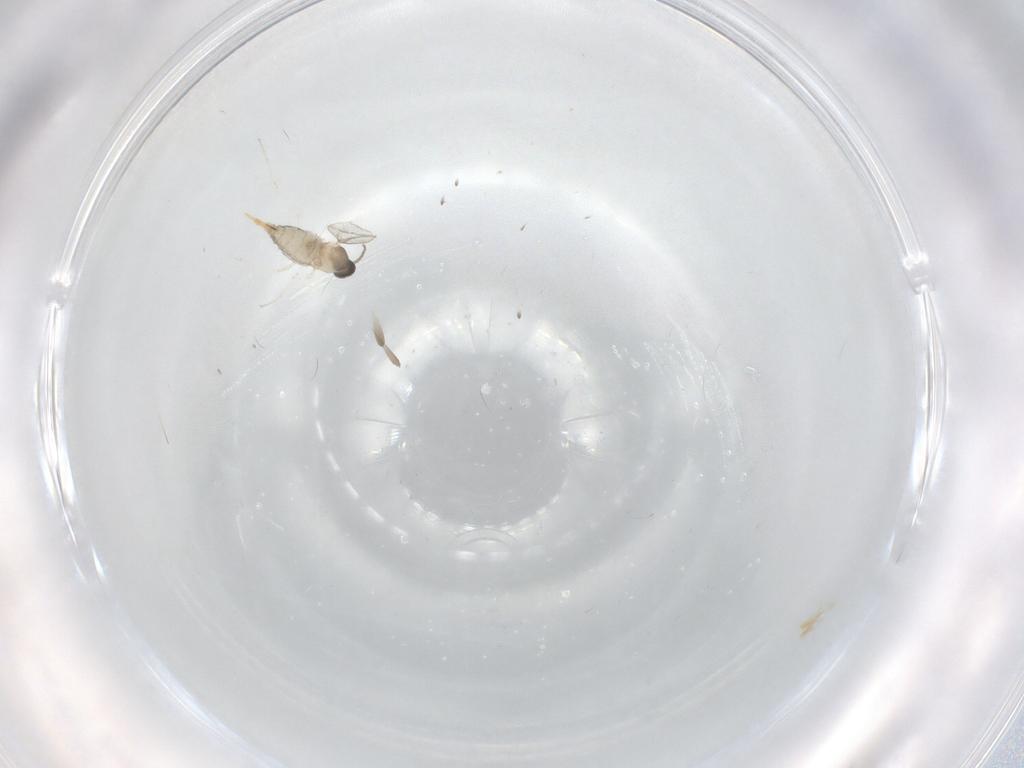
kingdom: Animalia
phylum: Arthropoda
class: Insecta
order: Diptera
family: Cecidomyiidae
